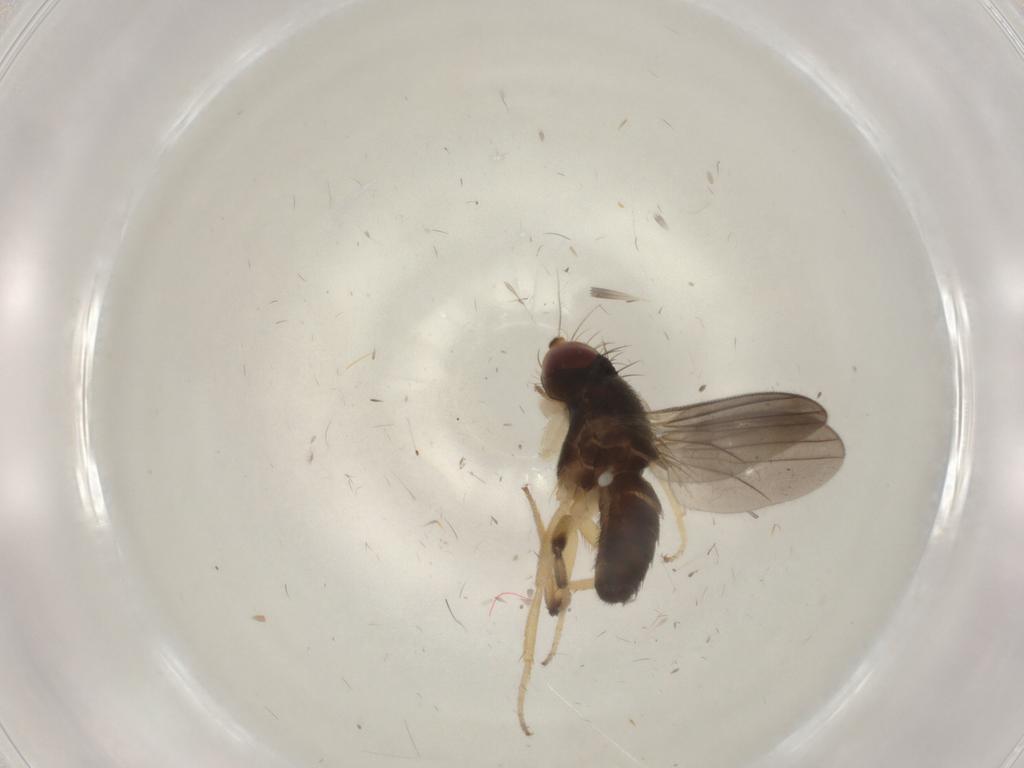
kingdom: Animalia
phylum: Arthropoda
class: Insecta
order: Diptera
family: Clusiidae
